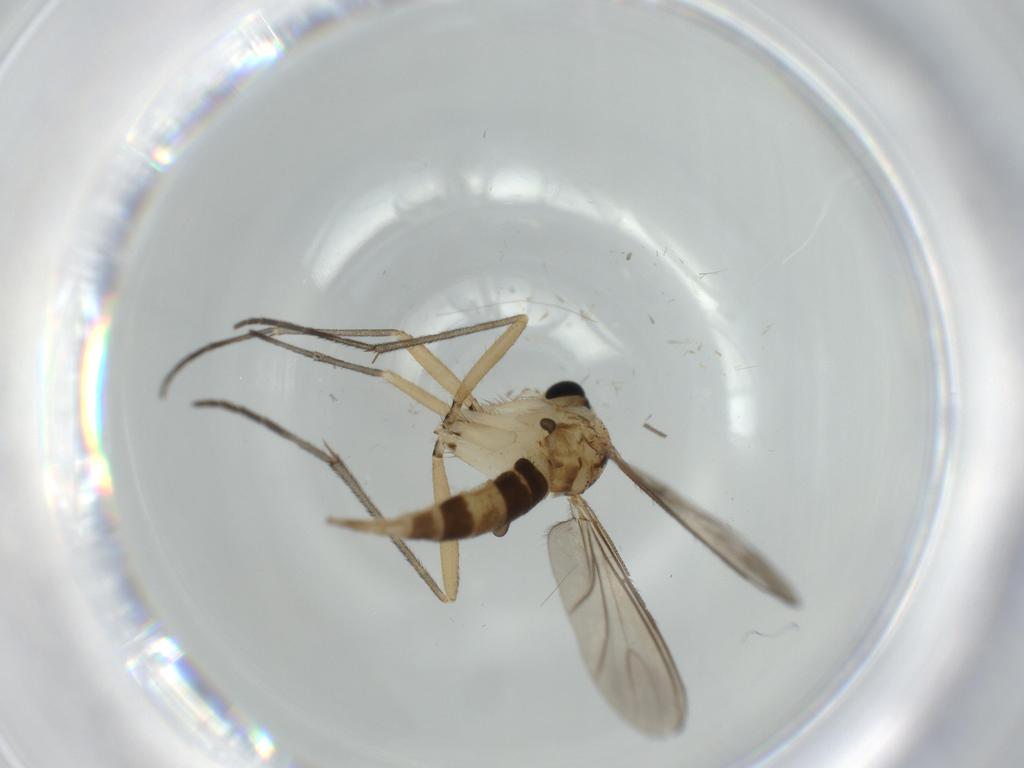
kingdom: Animalia
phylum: Arthropoda
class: Insecta
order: Diptera
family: Sciaridae
